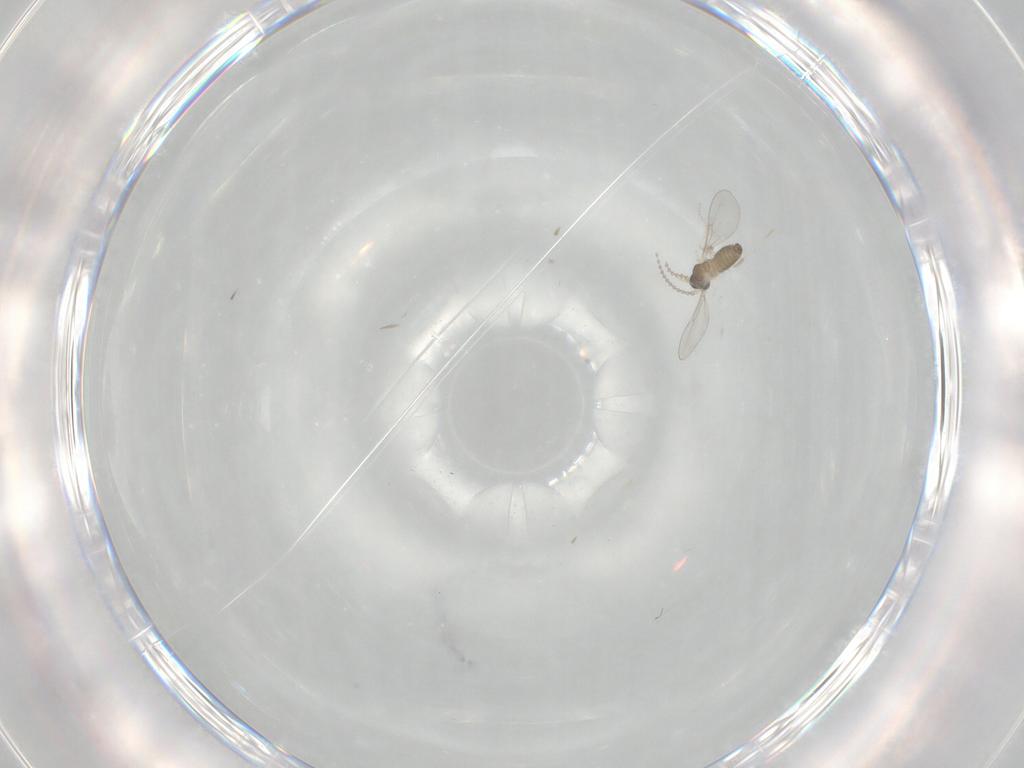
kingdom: Animalia
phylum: Arthropoda
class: Insecta
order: Diptera
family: Cecidomyiidae
